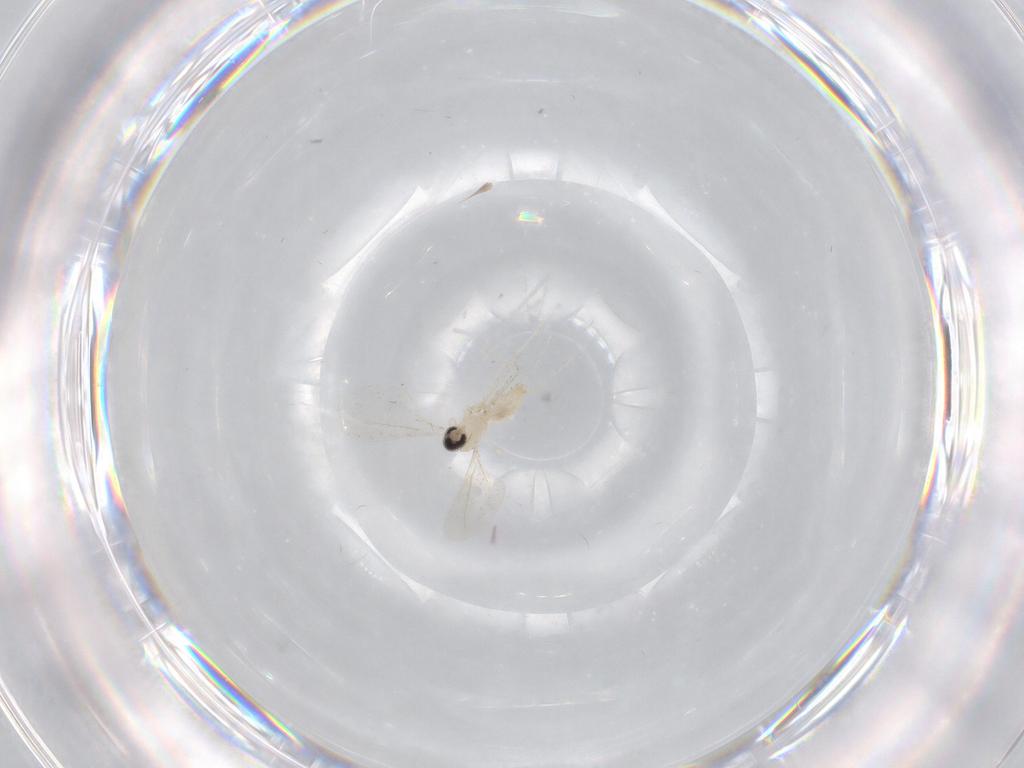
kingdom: Animalia
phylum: Arthropoda
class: Insecta
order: Diptera
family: Cecidomyiidae
